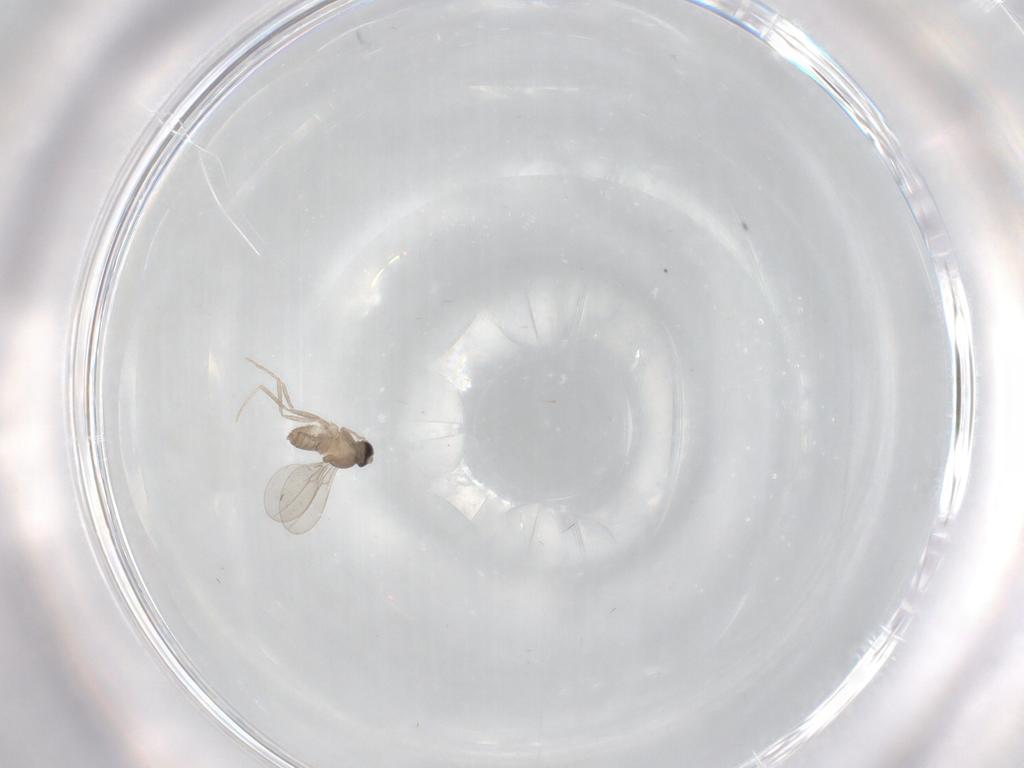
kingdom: Animalia
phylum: Arthropoda
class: Insecta
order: Diptera
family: Cecidomyiidae
